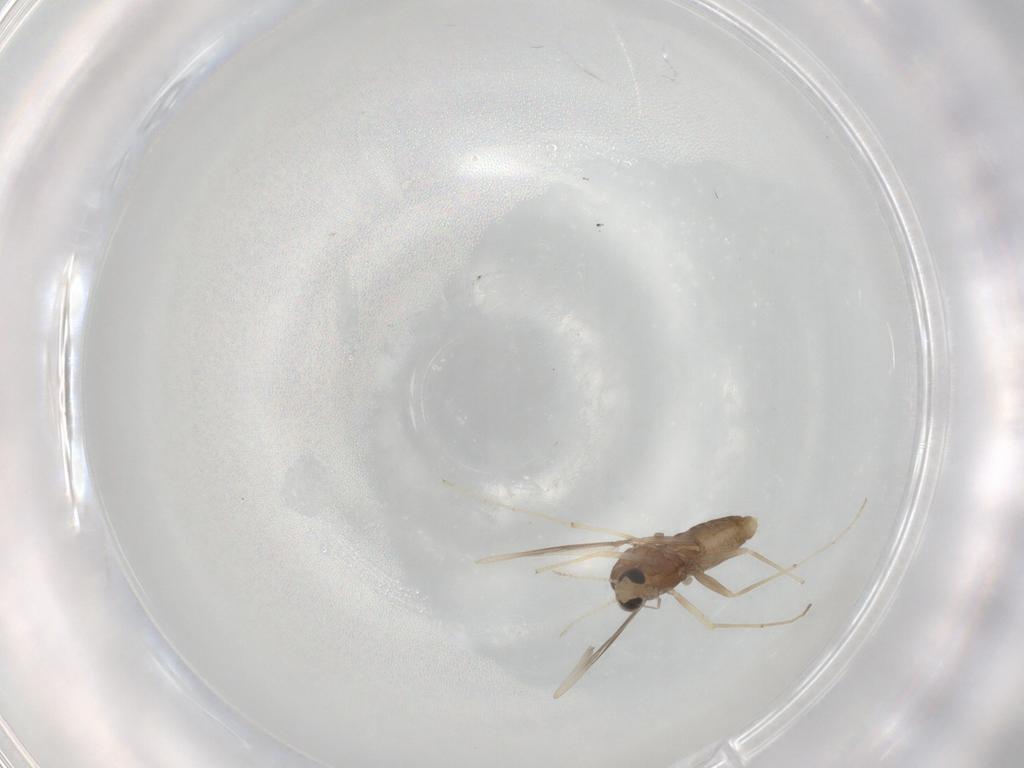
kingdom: Animalia
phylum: Arthropoda
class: Insecta
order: Diptera
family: Chironomidae
